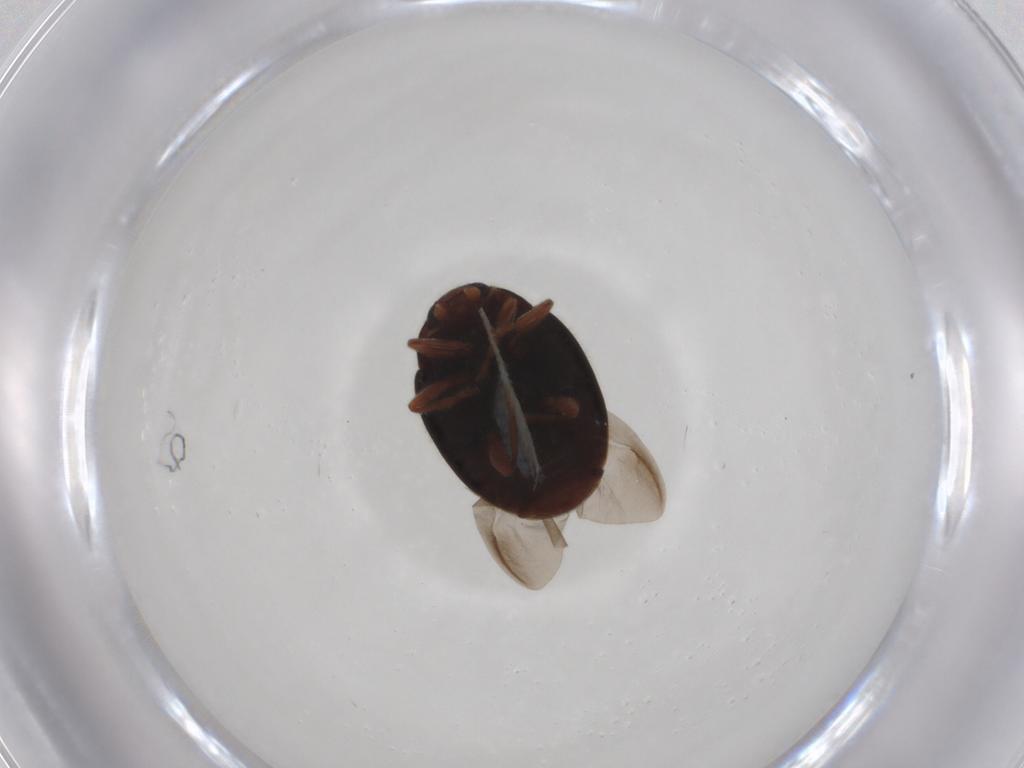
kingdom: Animalia
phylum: Arthropoda
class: Insecta
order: Coleoptera
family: Coccinellidae
